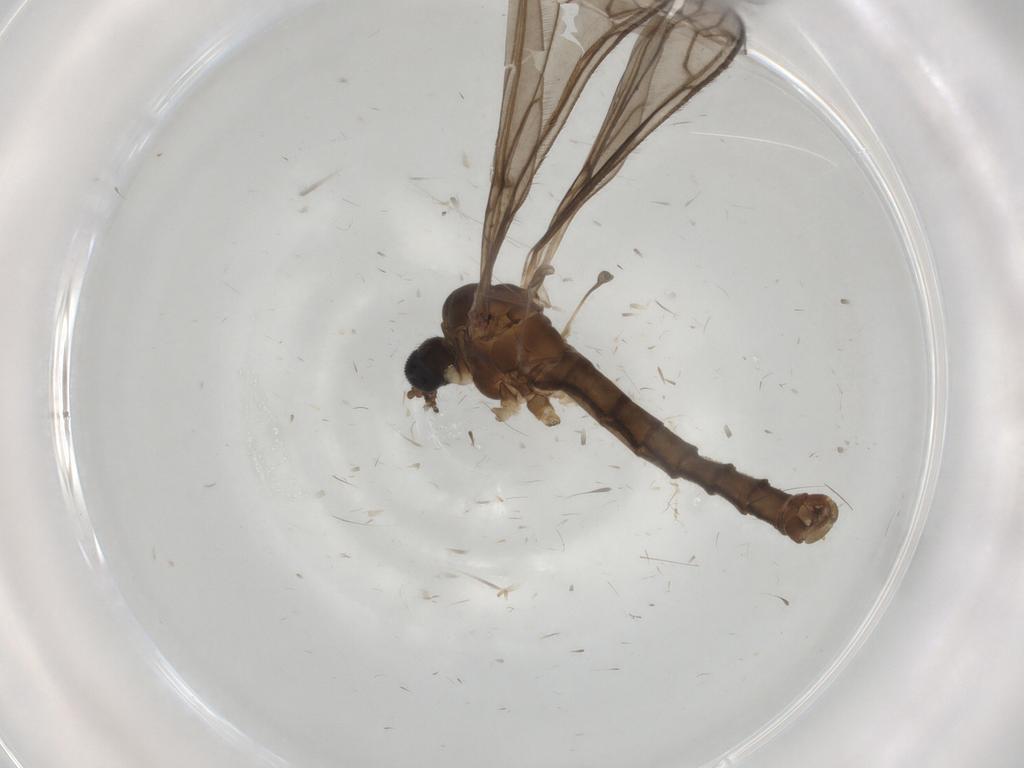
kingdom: Animalia
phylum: Arthropoda
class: Insecta
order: Diptera
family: Limoniidae
